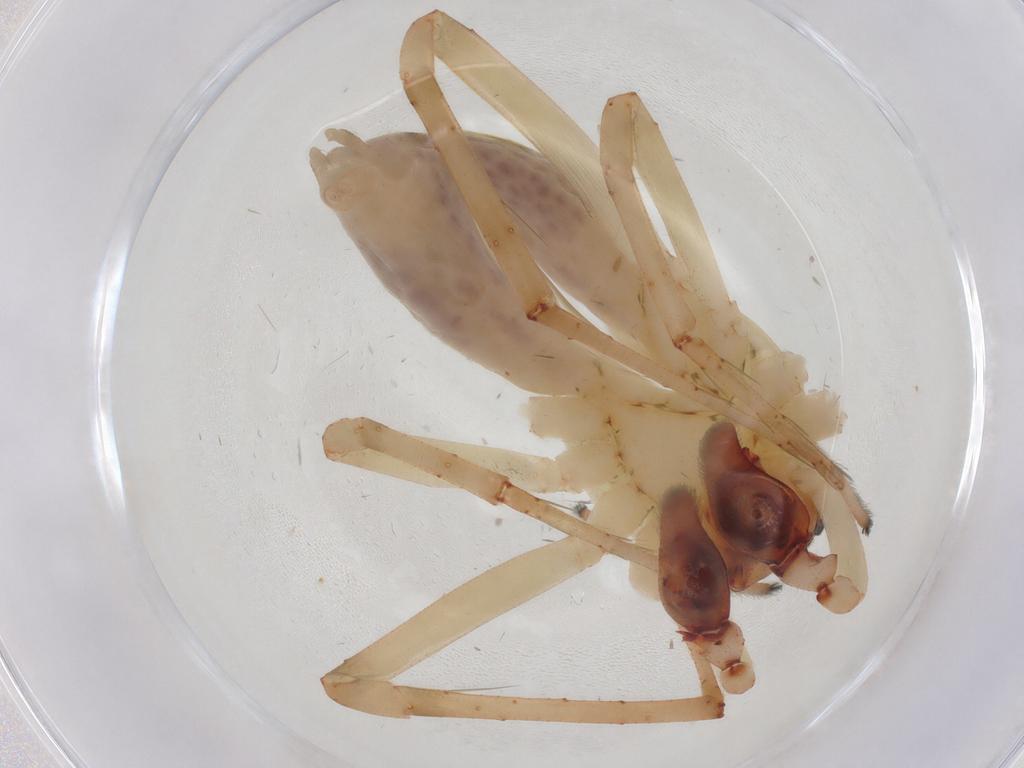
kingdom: Animalia
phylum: Arthropoda
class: Arachnida
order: Araneae
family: Anyphaenidae
